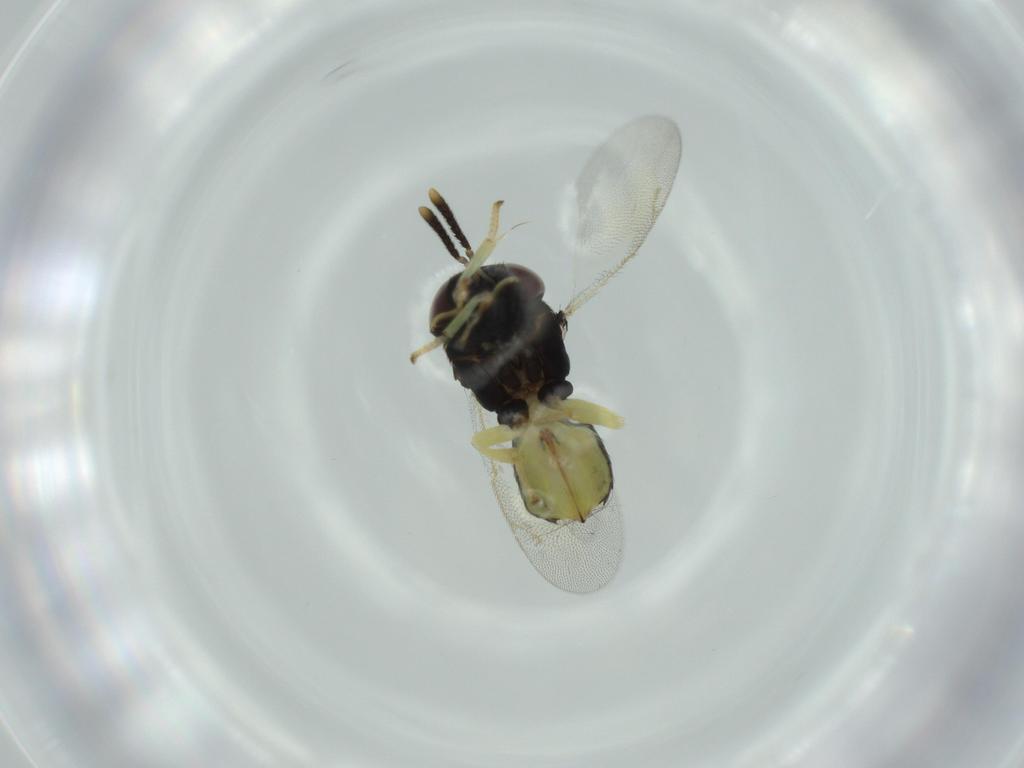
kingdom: Animalia
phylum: Arthropoda
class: Insecta
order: Hymenoptera
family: Tanaostigmatidae
